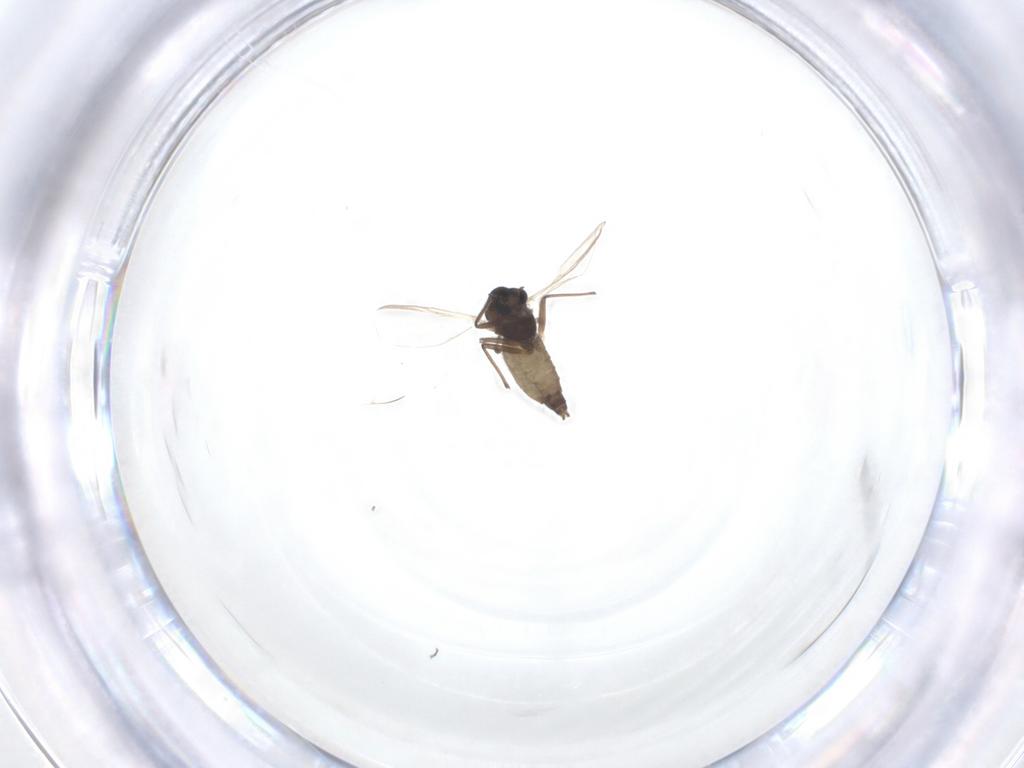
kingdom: Animalia
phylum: Arthropoda
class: Insecta
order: Diptera
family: Chironomidae
